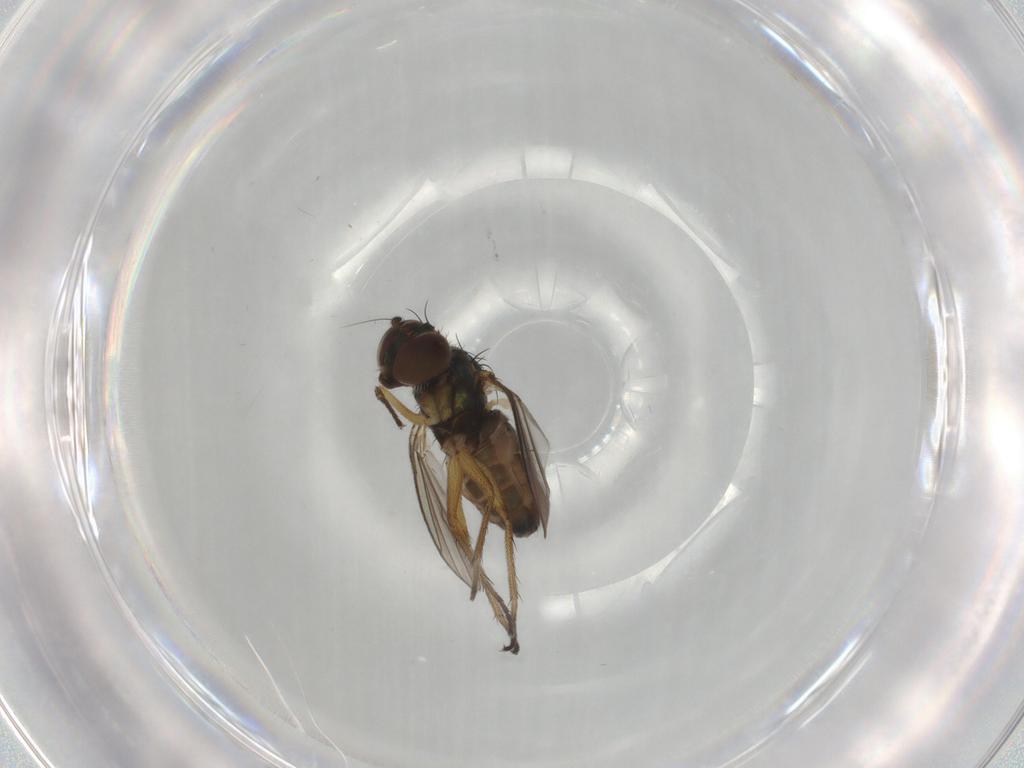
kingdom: Animalia
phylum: Arthropoda
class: Insecta
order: Diptera
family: Dolichopodidae
